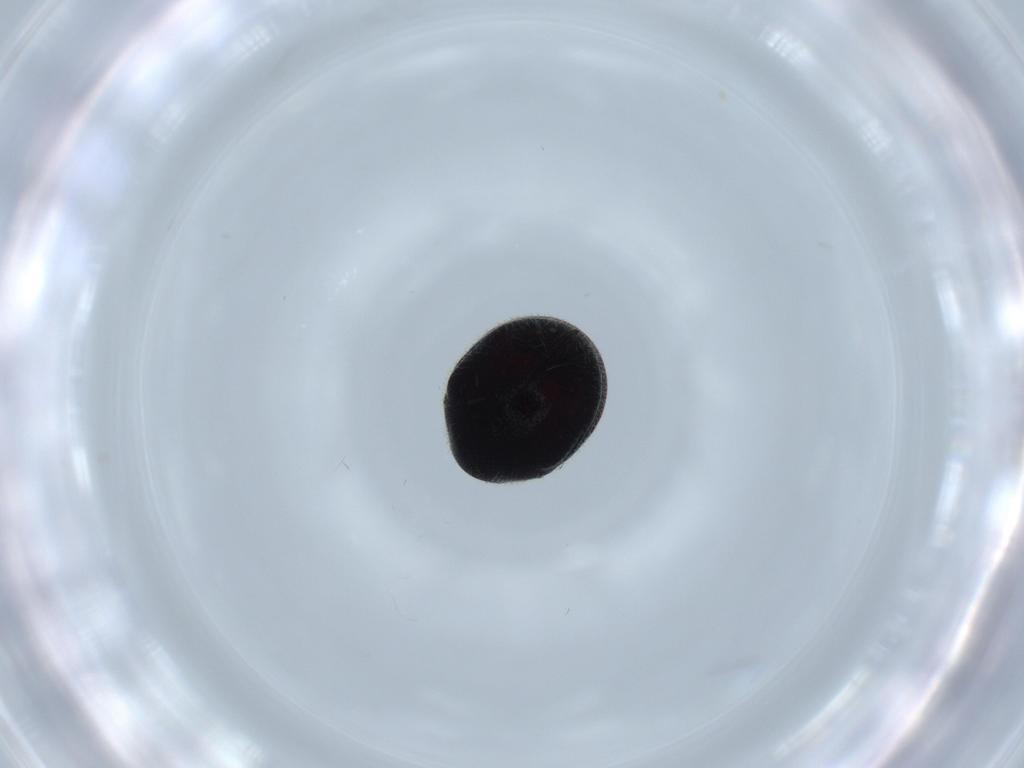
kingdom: Animalia
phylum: Arthropoda
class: Insecta
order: Coleoptera
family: Ptinidae
